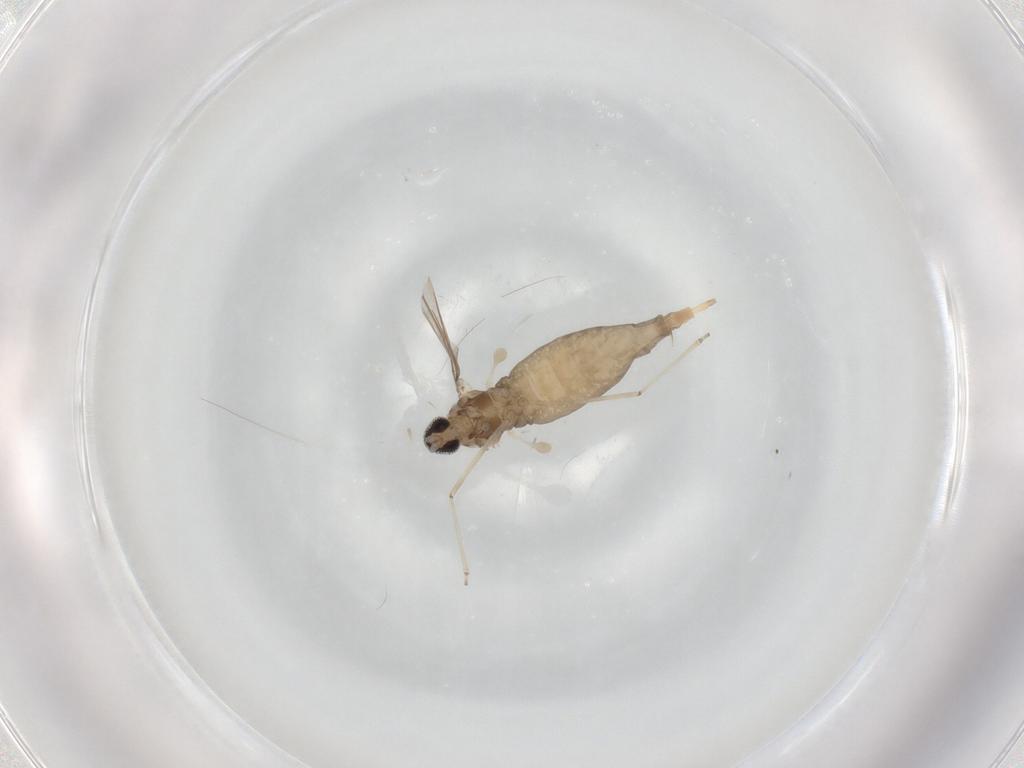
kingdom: Animalia
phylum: Arthropoda
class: Insecta
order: Diptera
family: Cecidomyiidae
